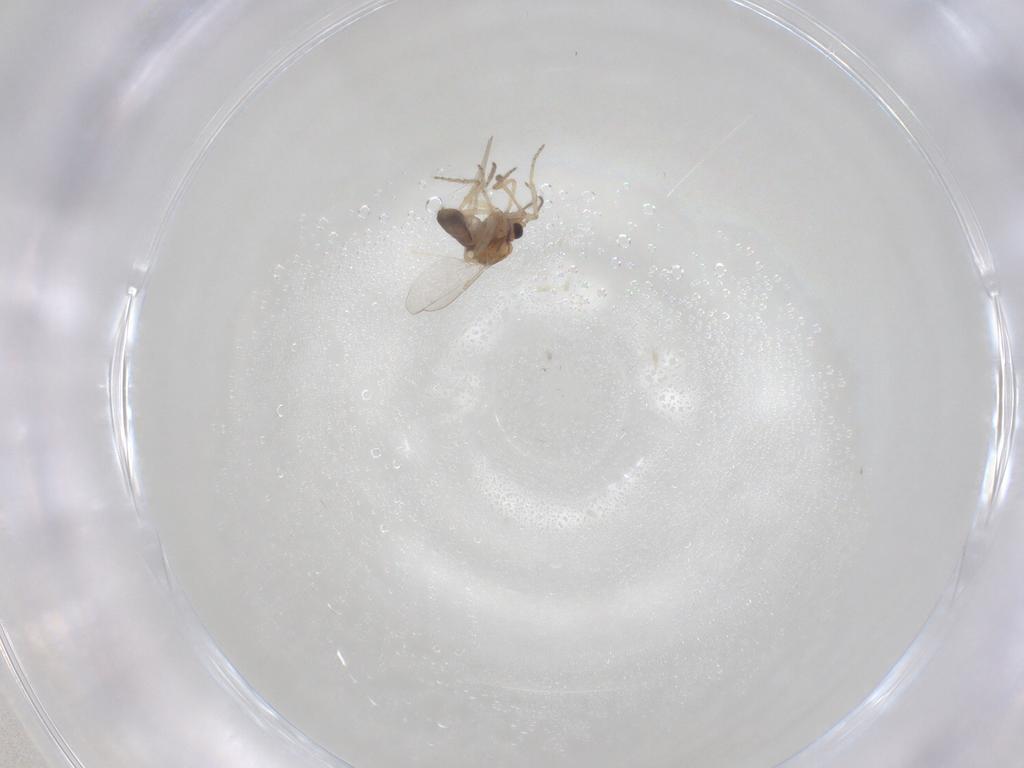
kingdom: Animalia
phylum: Arthropoda
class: Insecta
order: Diptera
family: Ceratopogonidae
